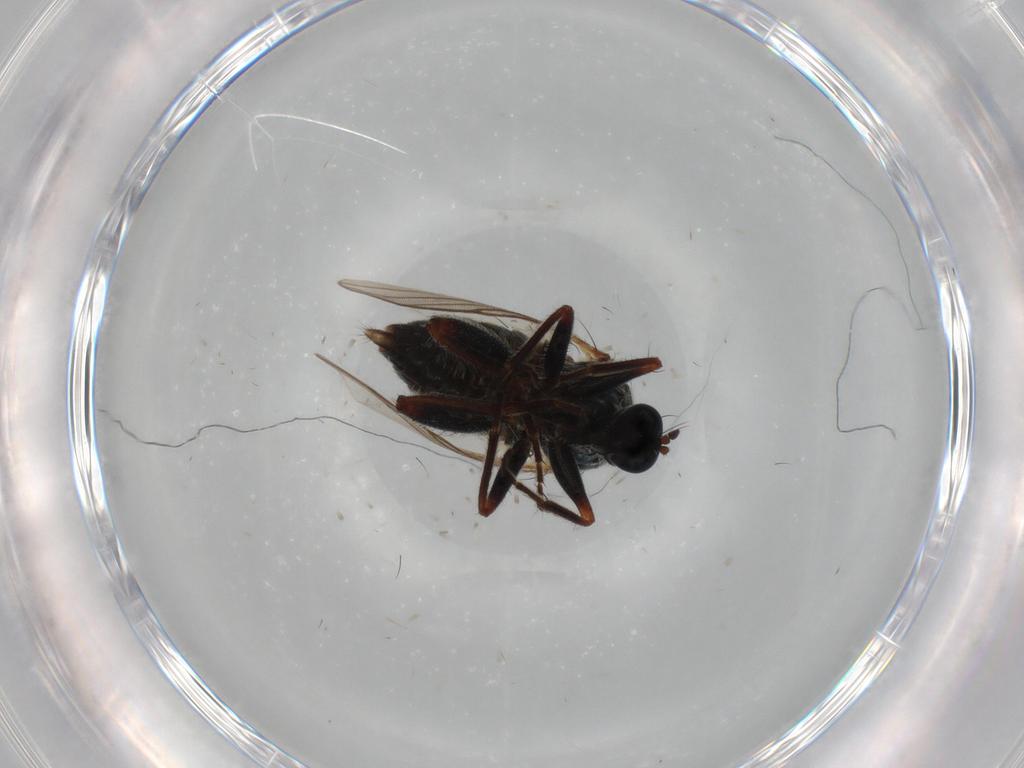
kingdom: Animalia
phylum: Arthropoda
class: Insecta
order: Diptera
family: Hybotidae
